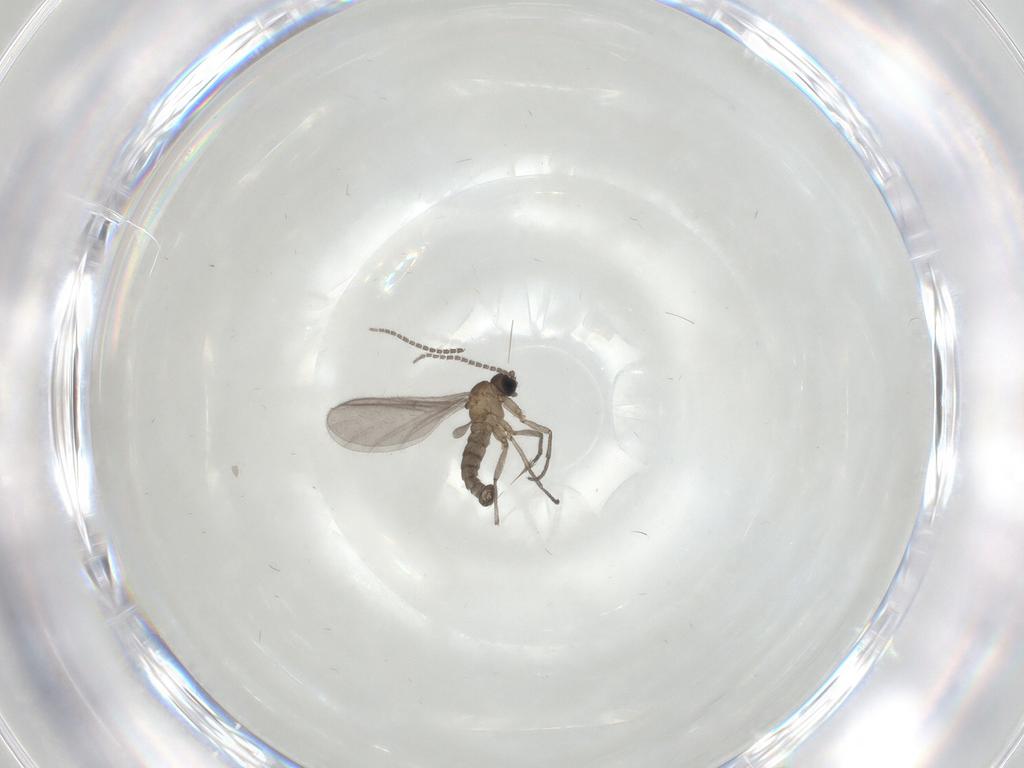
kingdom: Animalia
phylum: Arthropoda
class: Insecta
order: Diptera
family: Sciaridae
